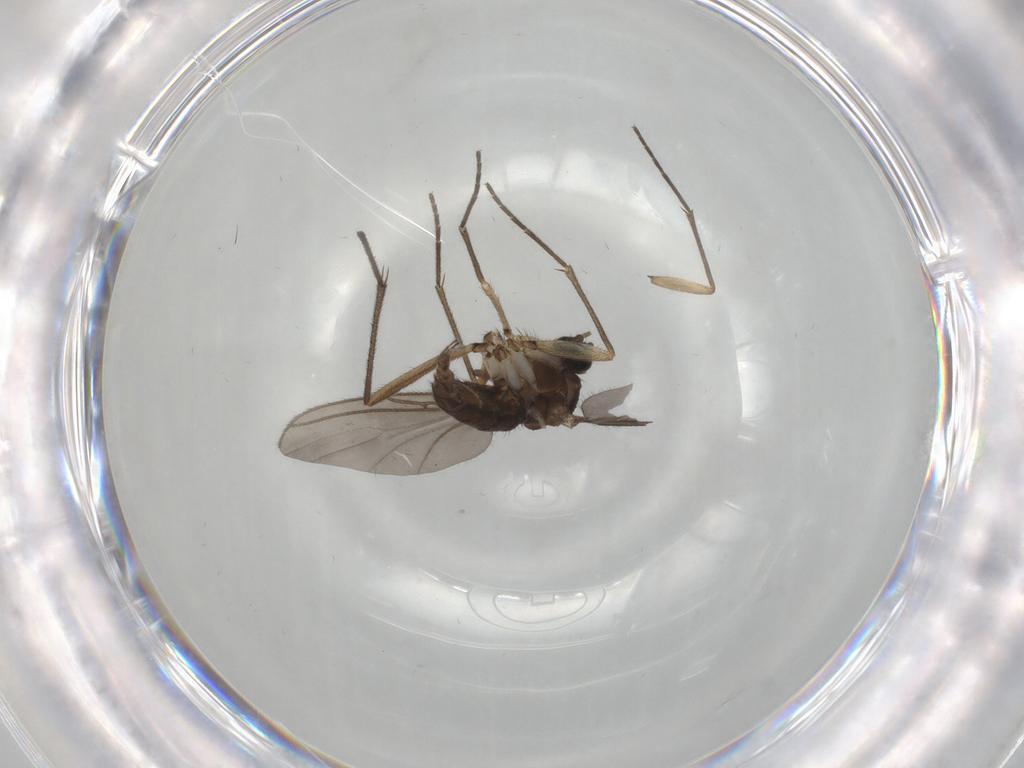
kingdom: Animalia
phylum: Arthropoda
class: Insecta
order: Diptera
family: Sciaridae
